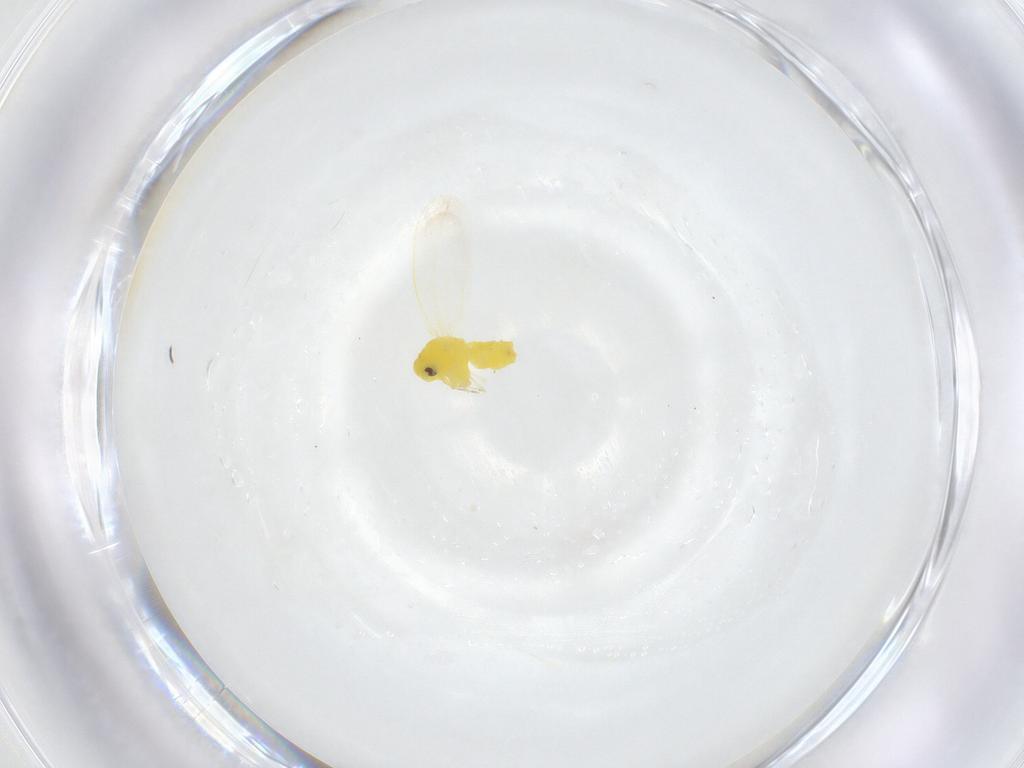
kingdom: Animalia
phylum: Arthropoda
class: Insecta
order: Hemiptera
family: Aleyrodidae
